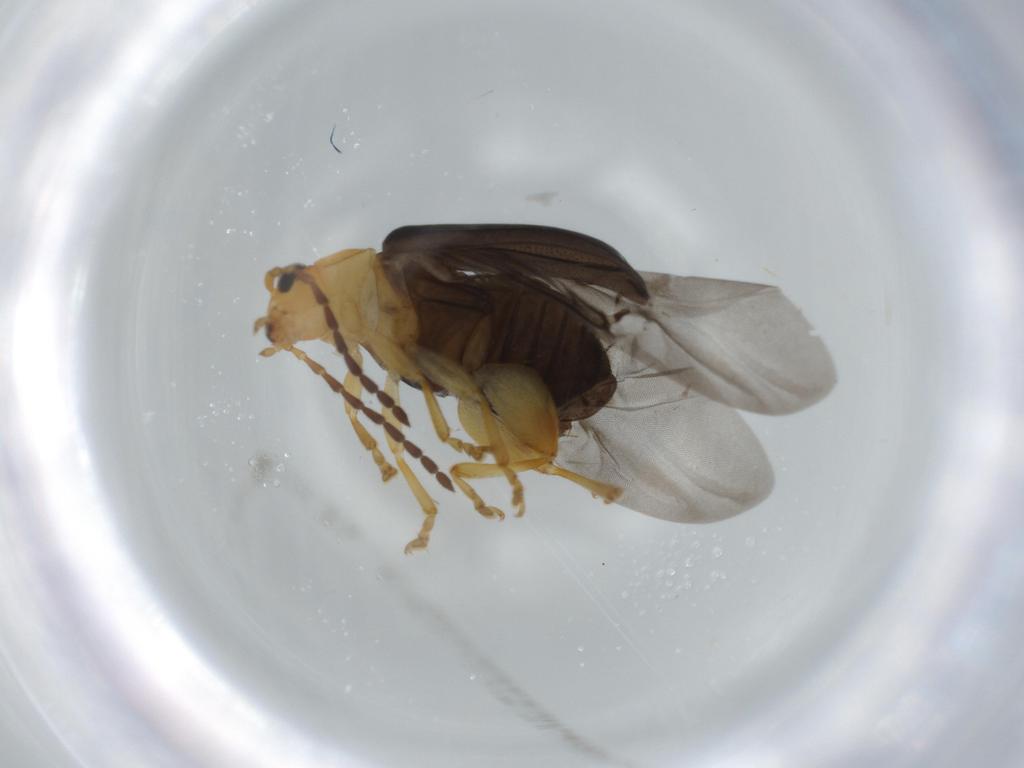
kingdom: Animalia
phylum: Arthropoda
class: Insecta
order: Coleoptera
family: Chrysomelidae
